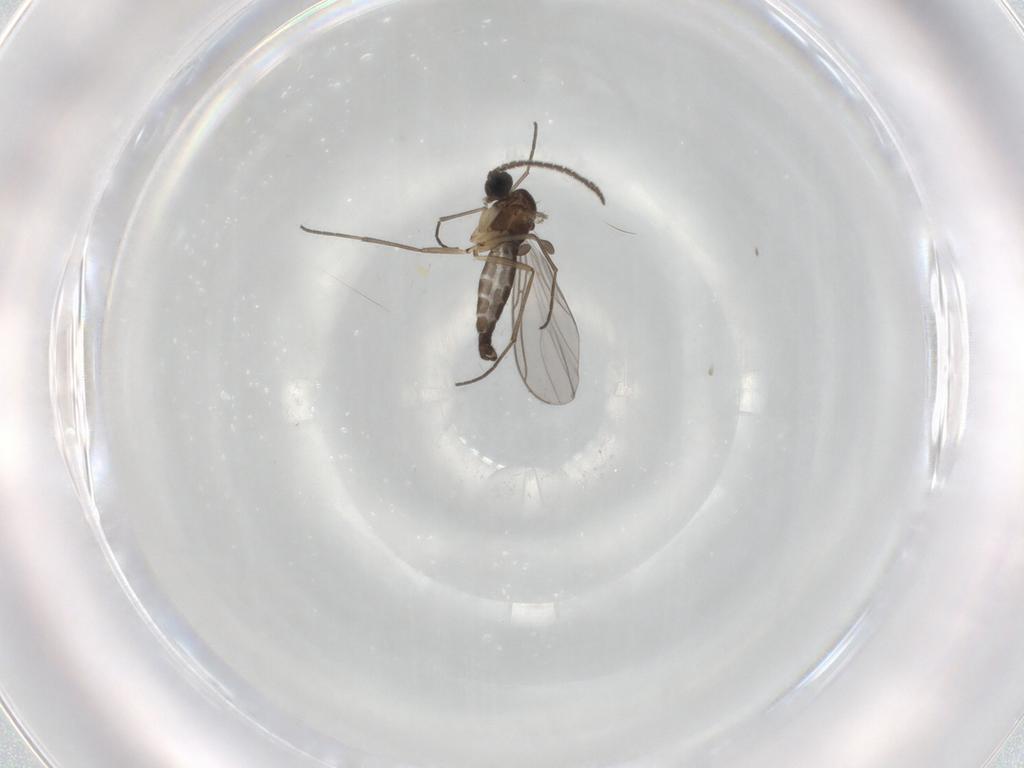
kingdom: Animalia
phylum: Arthropoda
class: Insecta
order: Diptera
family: Sciaridae
